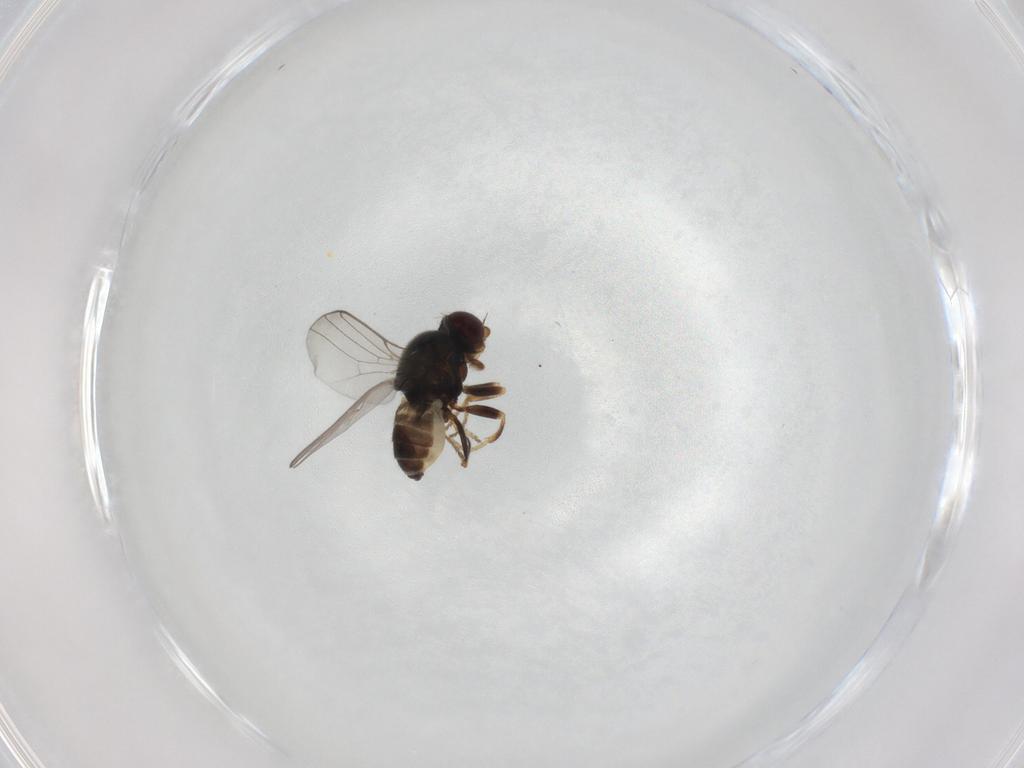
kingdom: Animalia
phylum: Arthropoda
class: Insecta
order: Diptera
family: Chloropidae
